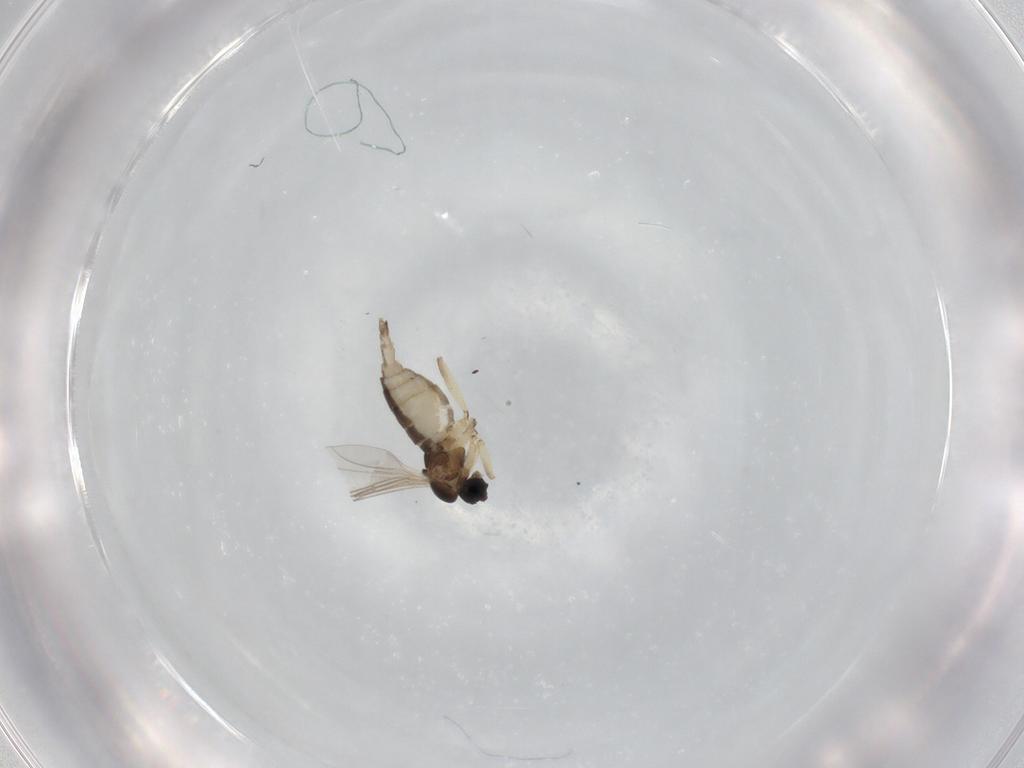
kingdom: Animalia
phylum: Arthropoda
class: Insecta
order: Diptera
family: Sciaridae
